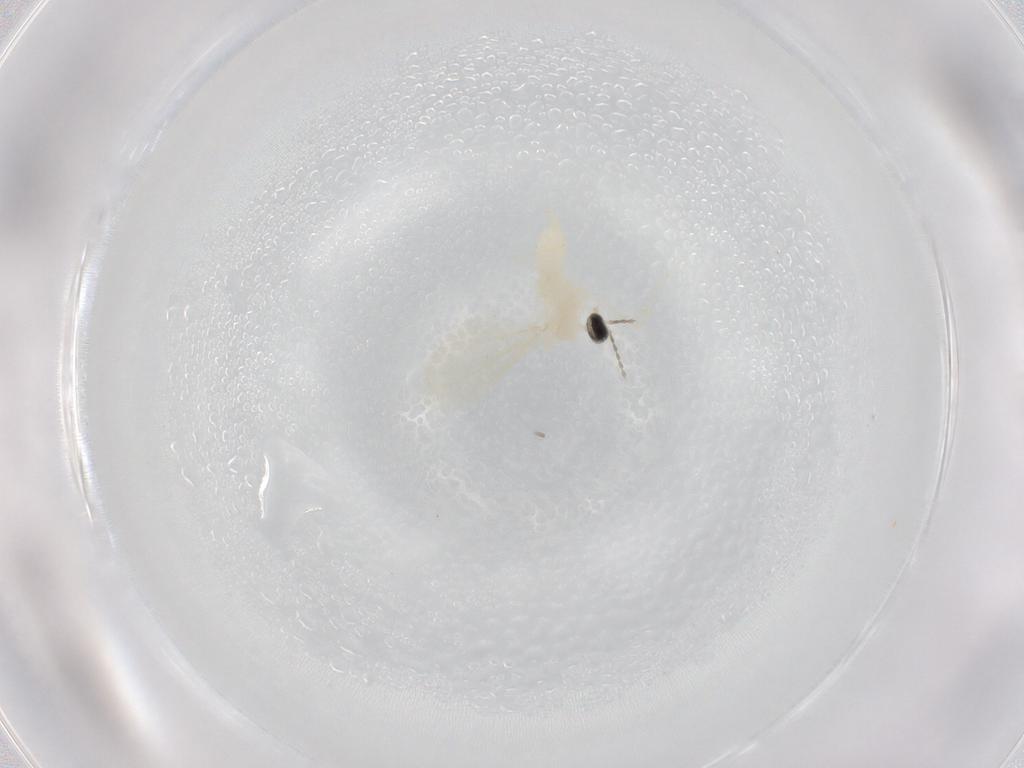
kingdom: Animalia
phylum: Arthropoda
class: Insecta
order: Diptera
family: Cecidomyiidae
